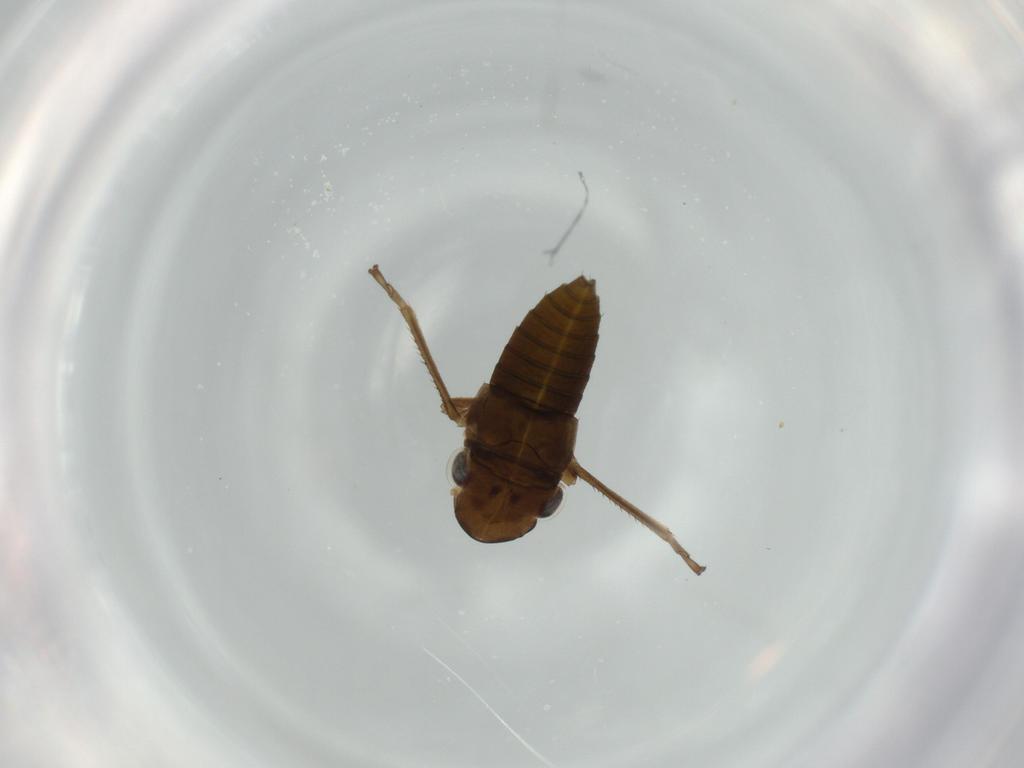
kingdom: Animalia
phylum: Arthropoda
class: Insecta
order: Hemiptera
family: Cicadellidae
